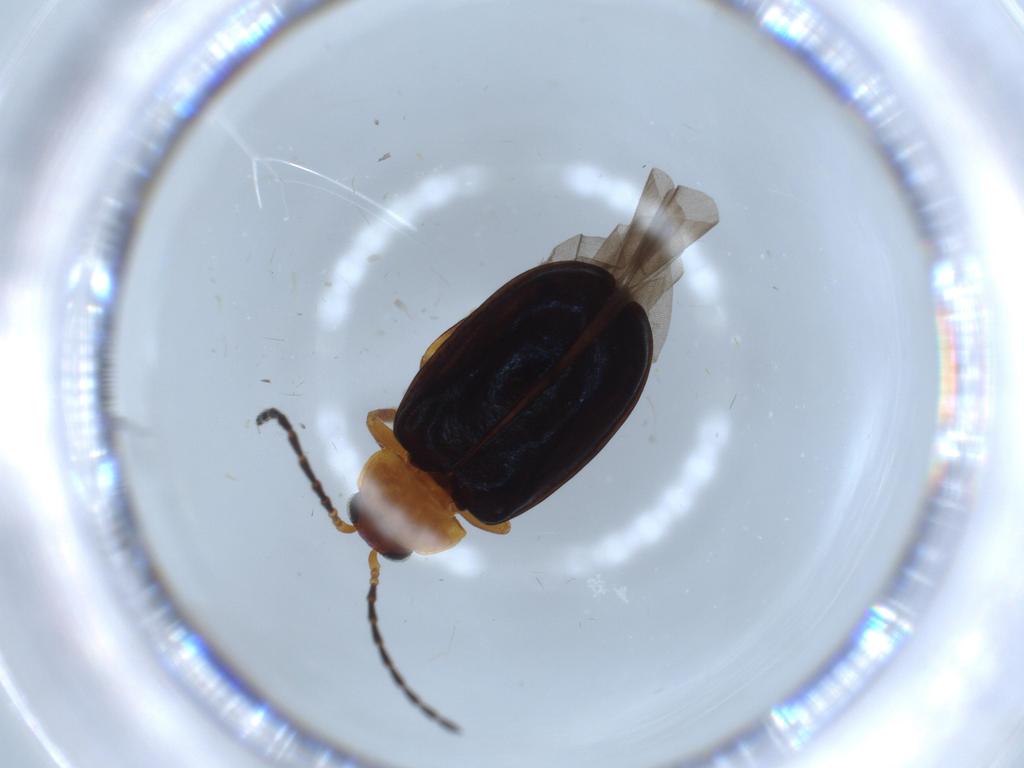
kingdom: Animalia
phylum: Arthropoda
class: Insecta
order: Coleoptera
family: Chrysomelidae
